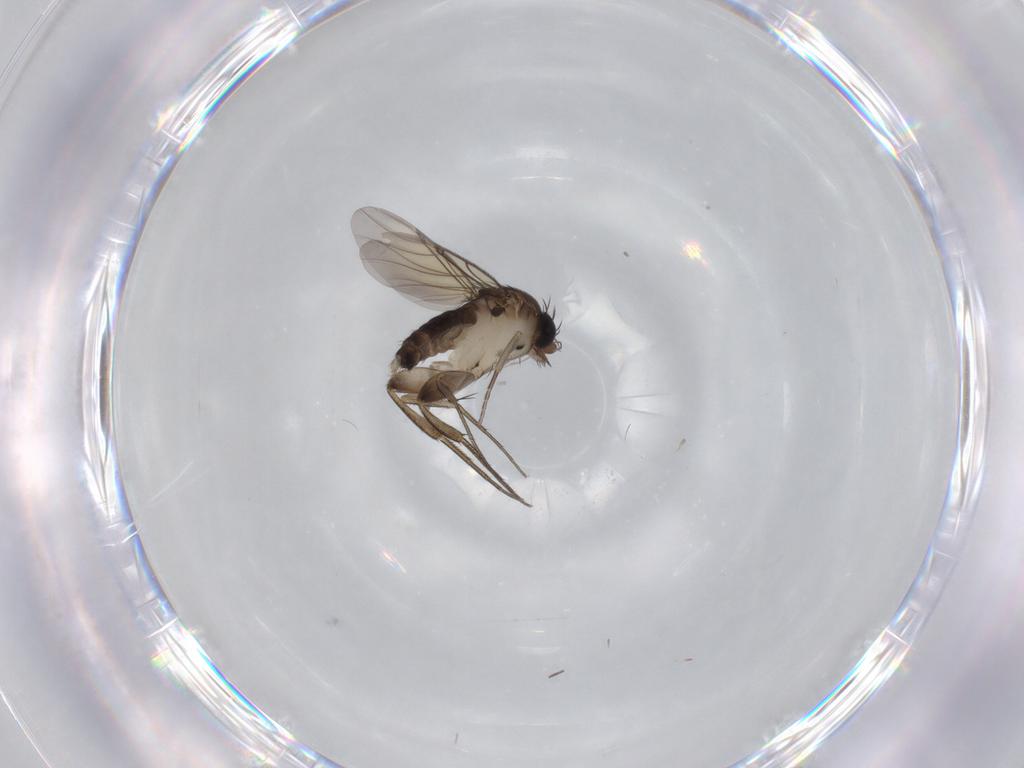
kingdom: Animalia
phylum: Arthropoda
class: Insecta
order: Diptera
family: Phoridae
